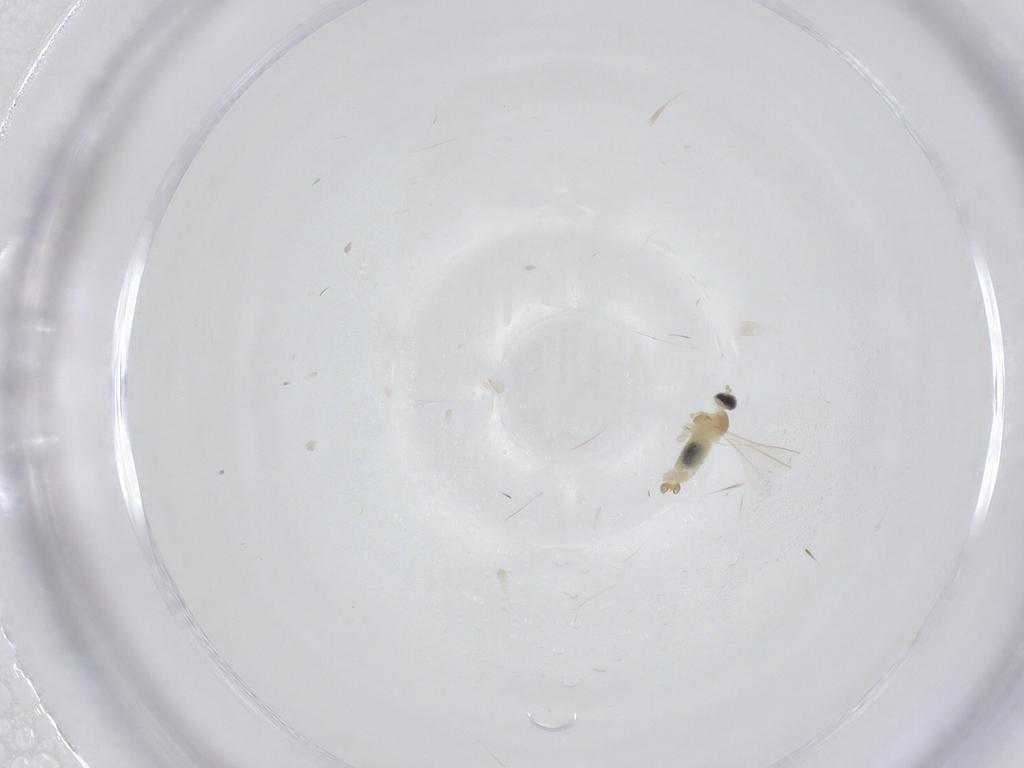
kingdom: Animalia
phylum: Arthropoda
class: Insecta
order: Diptera
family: Cecidomyiidae
